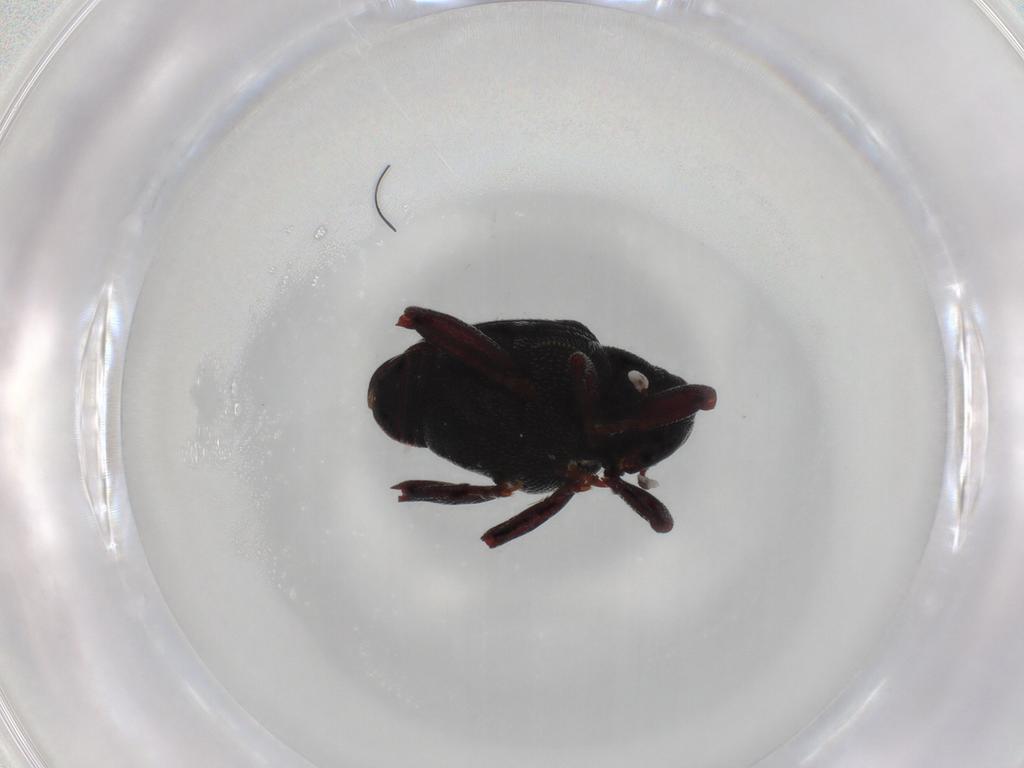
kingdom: Animalia
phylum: Arthropoda
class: Insecta
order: Coleoptera
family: Curculionidae
